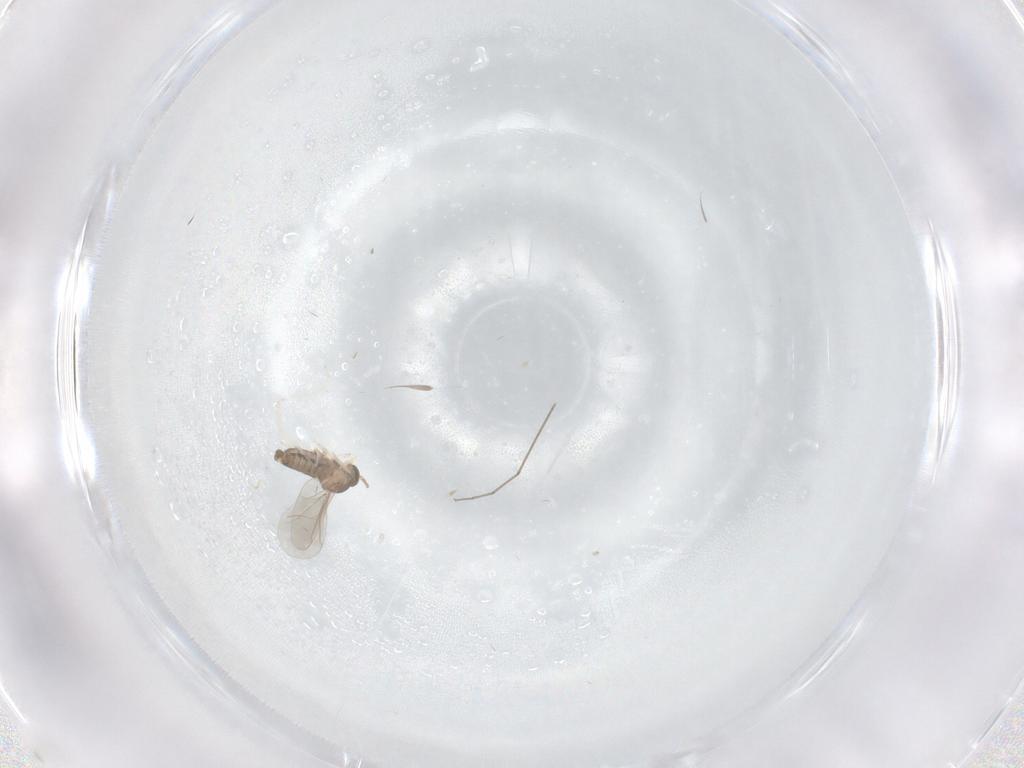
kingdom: Animalia
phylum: Arthropoda
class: Insecta
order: Diptera
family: Cecidomyiidae
